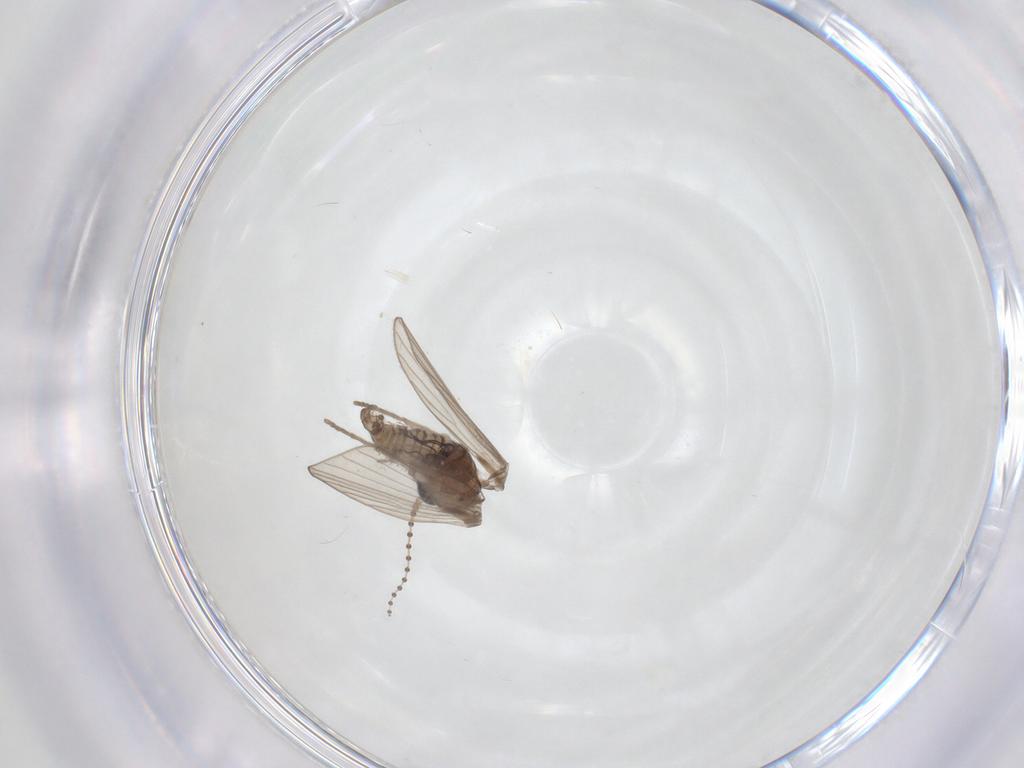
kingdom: Animalia
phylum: Arthropoda
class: Insecta
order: Diptera
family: Psychodidae
